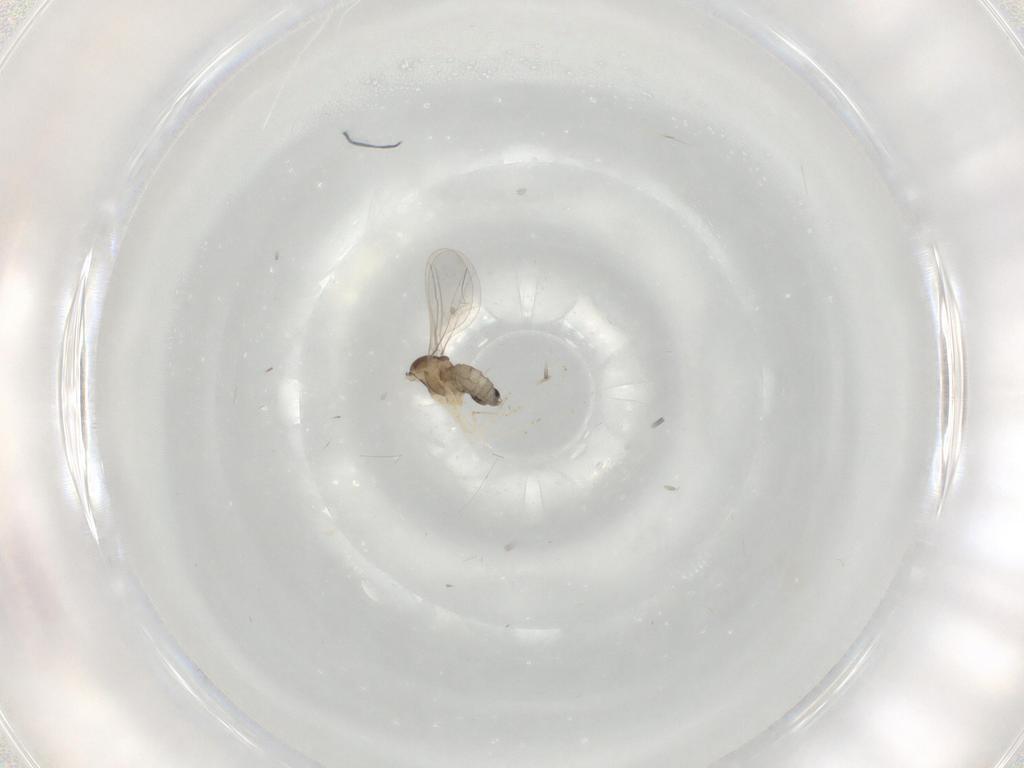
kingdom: Animalia
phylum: Arthropoda
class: Insecta
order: Diptera
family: Cecidomyiidae
